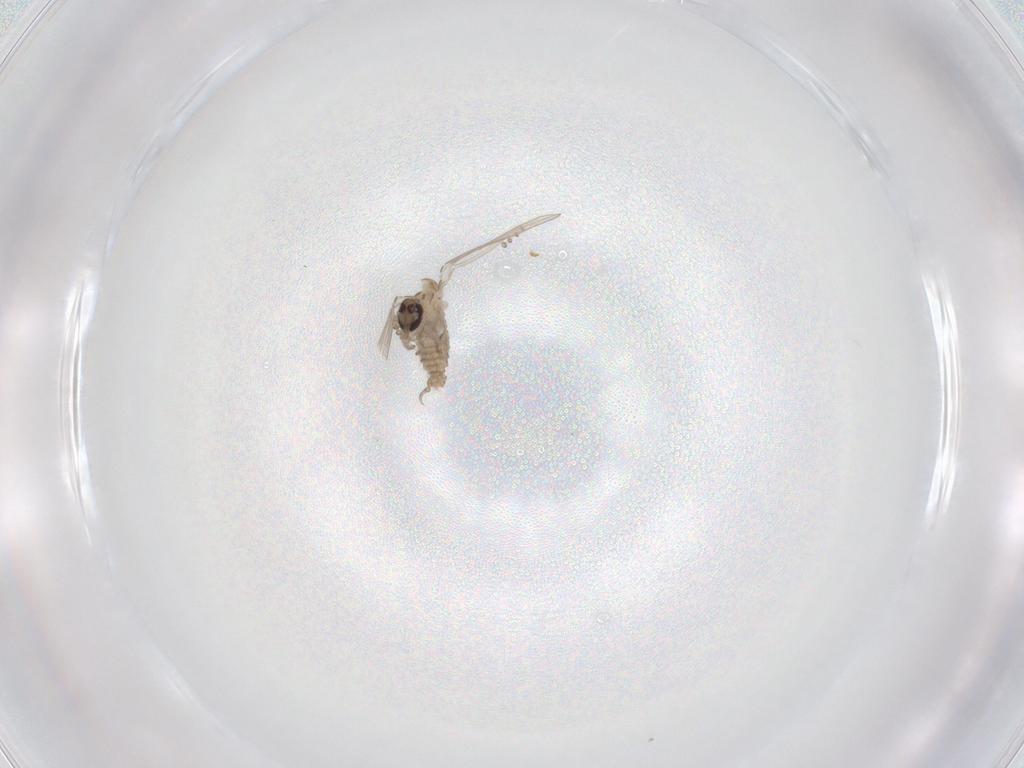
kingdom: Animalia
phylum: Arthropoda
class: Insecta
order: Diptera
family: Psychodidae
